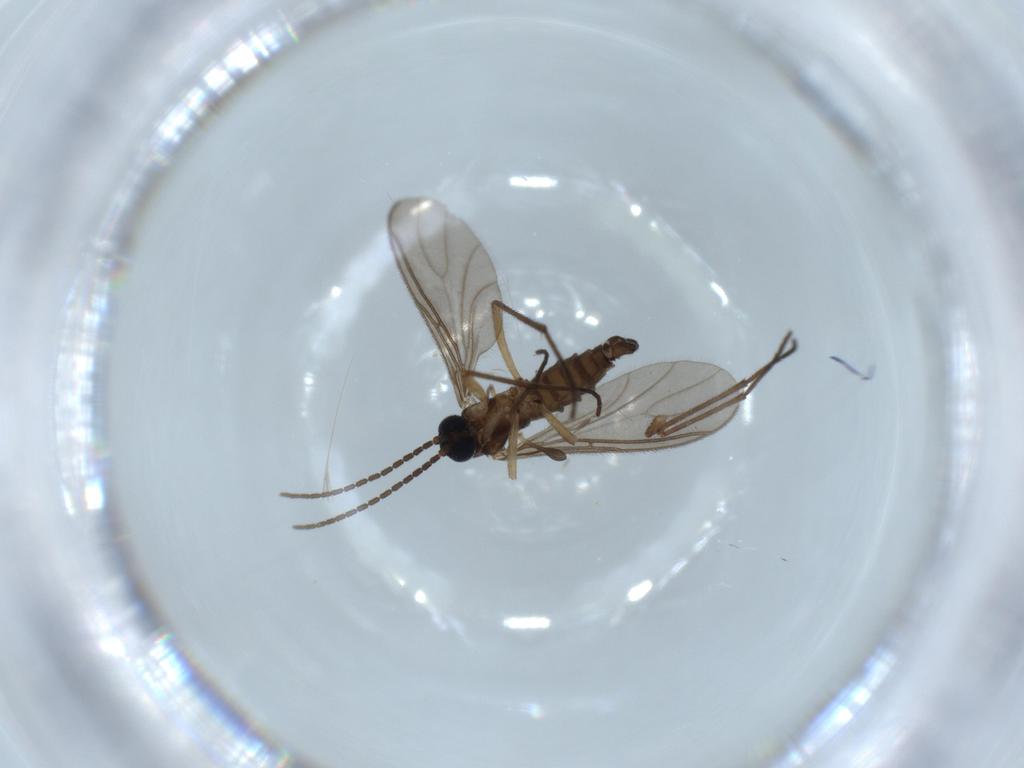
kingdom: Animalia
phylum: Arthropoda
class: Insecta
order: Diptera
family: Sciaridae
